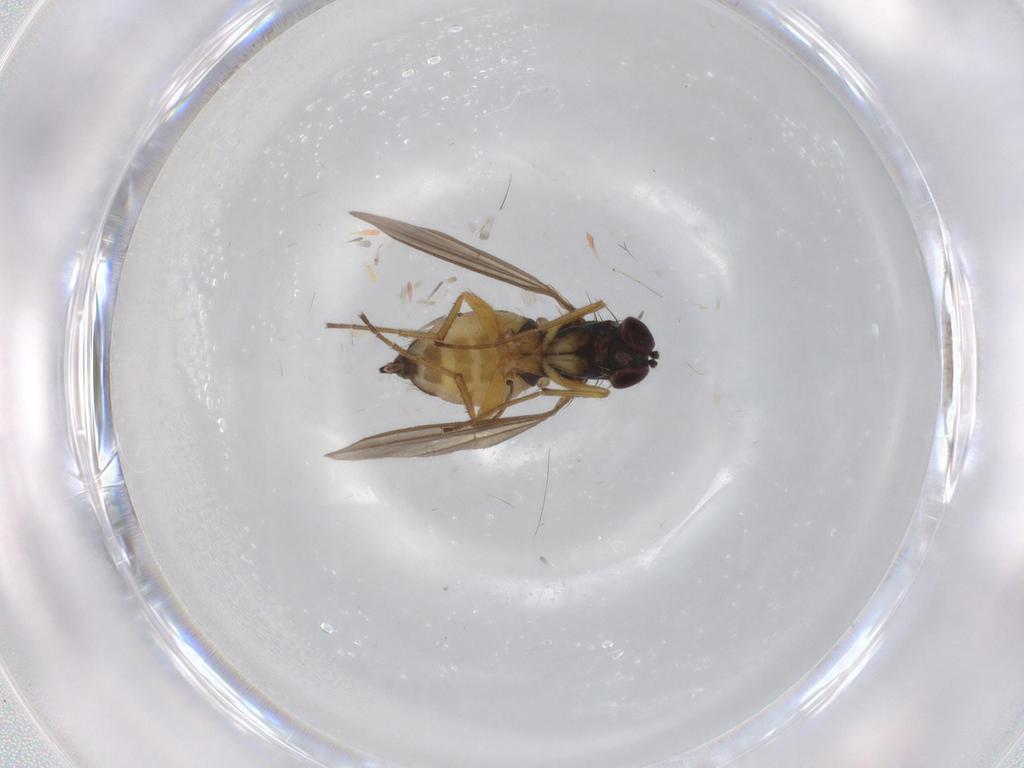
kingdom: Animalia
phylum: Arthropoda
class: Insecta
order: Diptera
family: Dolichopodidae
